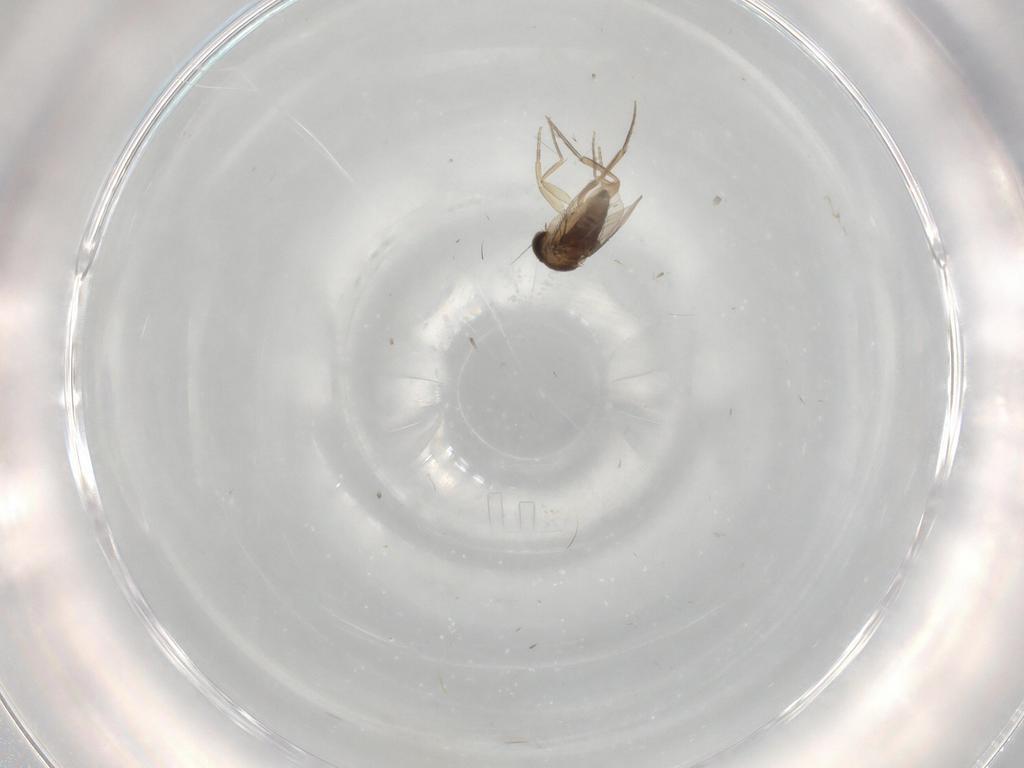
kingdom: Animalia
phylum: Arthropoda
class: Insecta
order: Diptera
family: Phoridae
